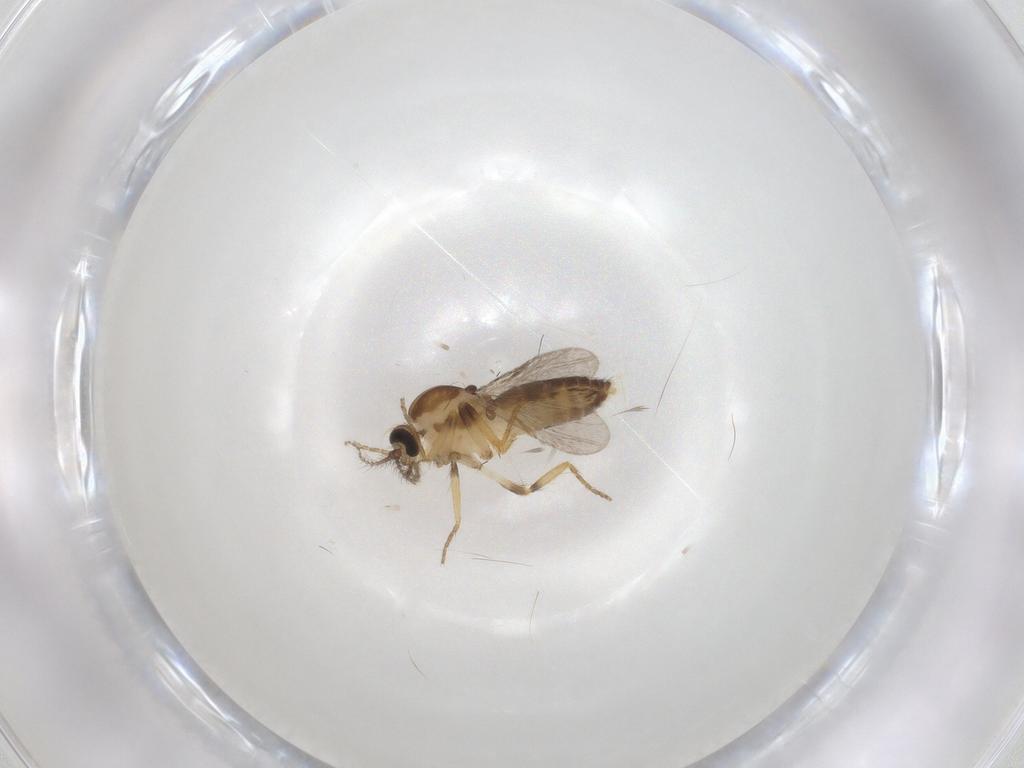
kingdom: Animalia
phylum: Arthropoda
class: Insecta
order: Diptera
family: Ceratopogonidae
